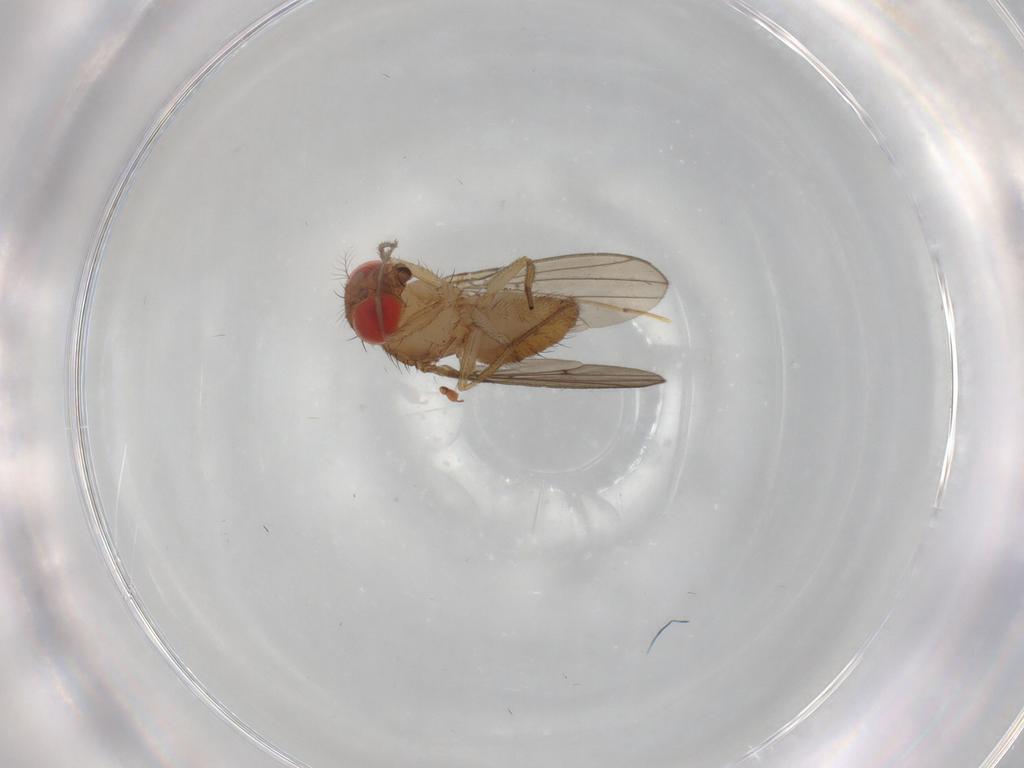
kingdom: Animalia
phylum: Arthropoda
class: Insecta
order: Diptera
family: Drosophilidae
